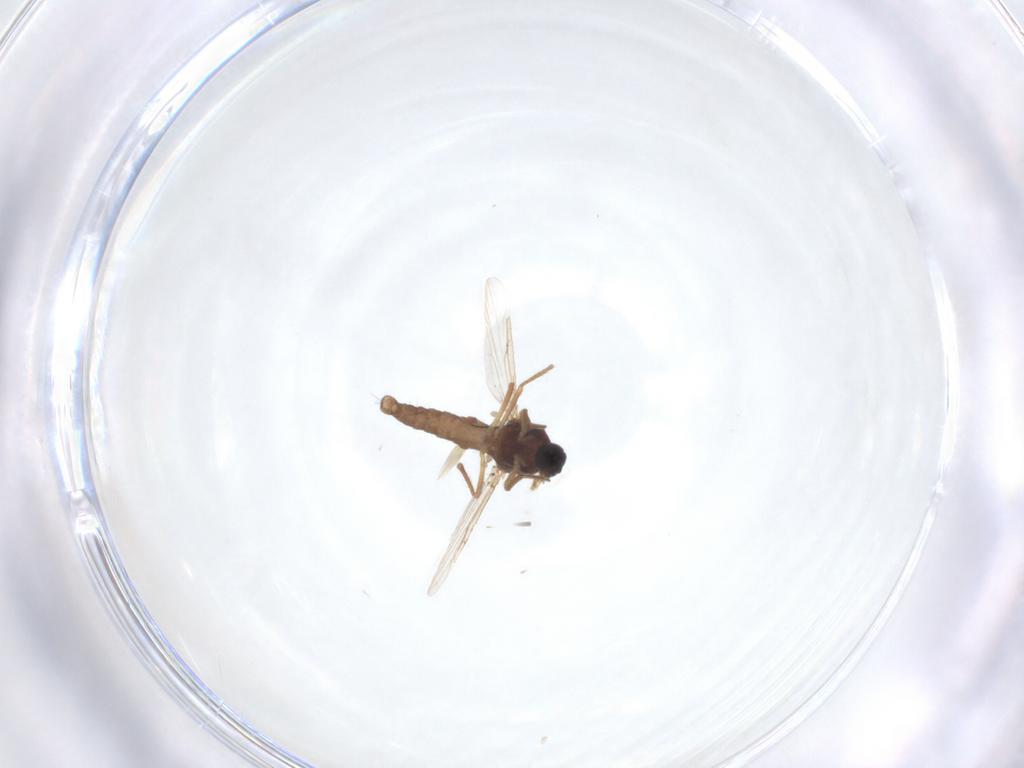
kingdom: Animalia
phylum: Arthropoda
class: Insecta
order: Diptera
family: Ceratopogonidae
